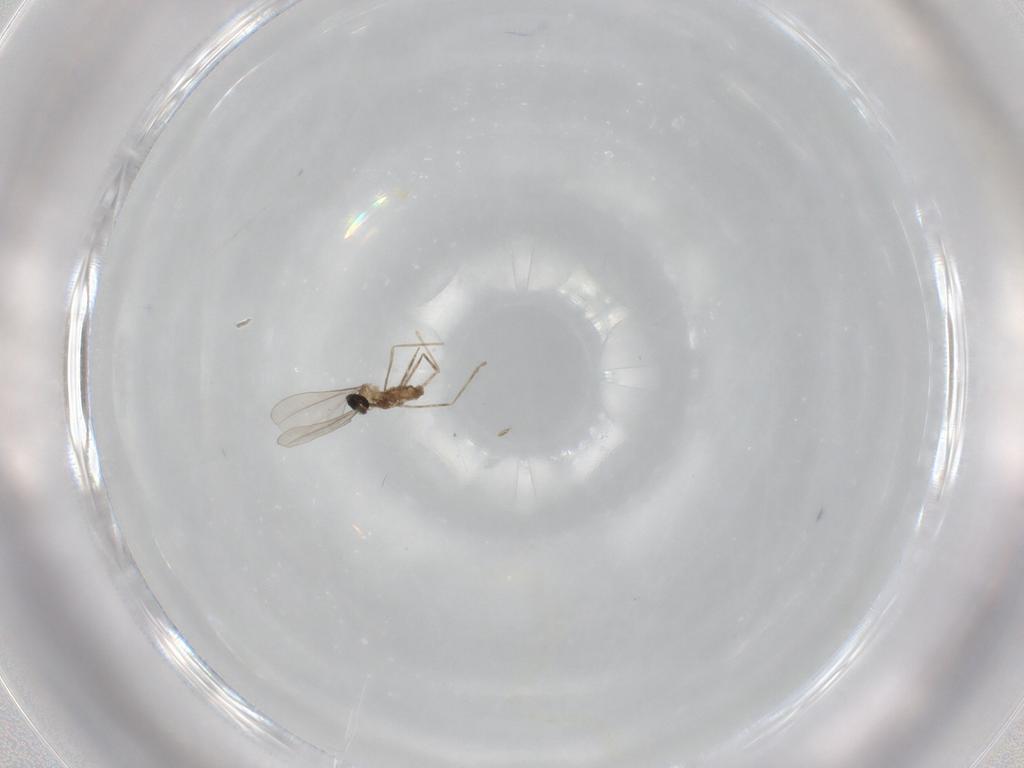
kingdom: Animalia
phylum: Arthropoda
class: Insecta
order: Diptera
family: Cecidomyiidae
